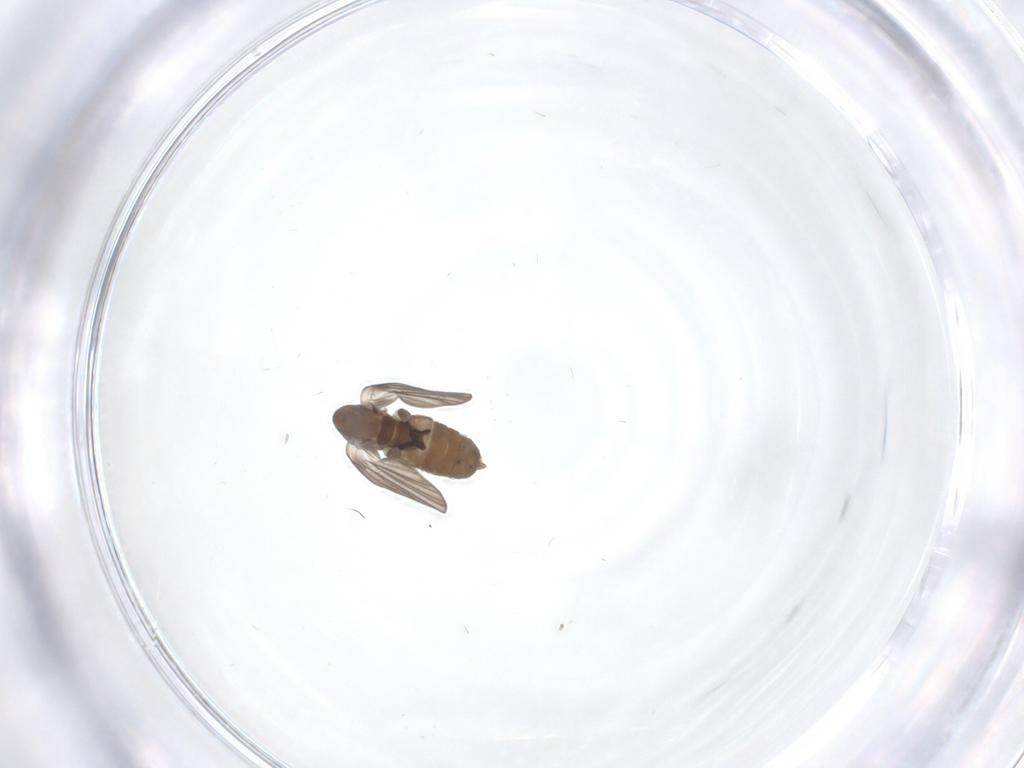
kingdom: Animalia
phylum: Arthropoda
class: Insecta
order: Diptera
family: Psychodidae
